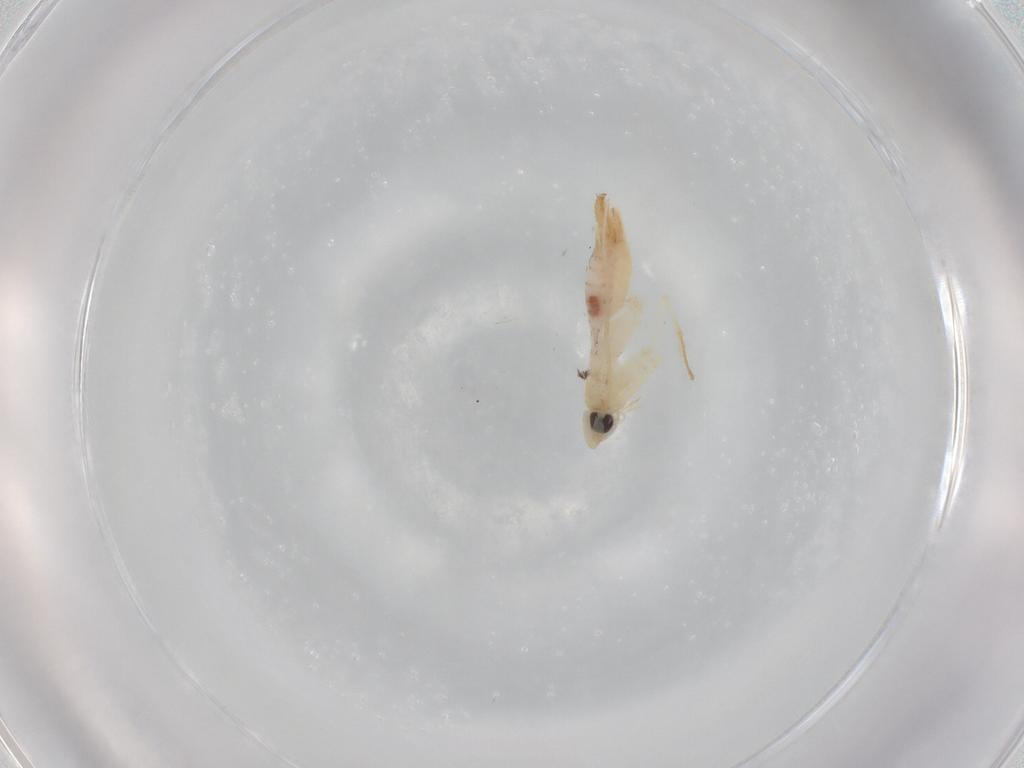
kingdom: Animalia
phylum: Arthropoda
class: Insecta
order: Lepidoptera
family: Tineidae
